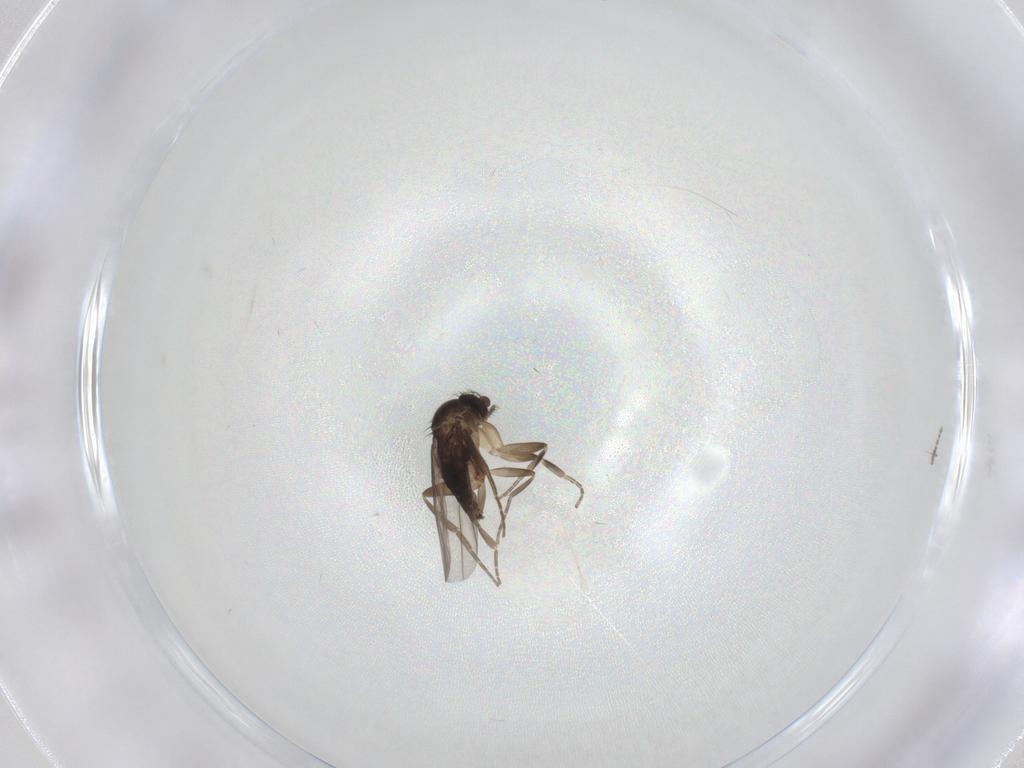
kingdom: Animalia
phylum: Arthropoda
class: Insecta
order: Diptera
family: Phoridae
